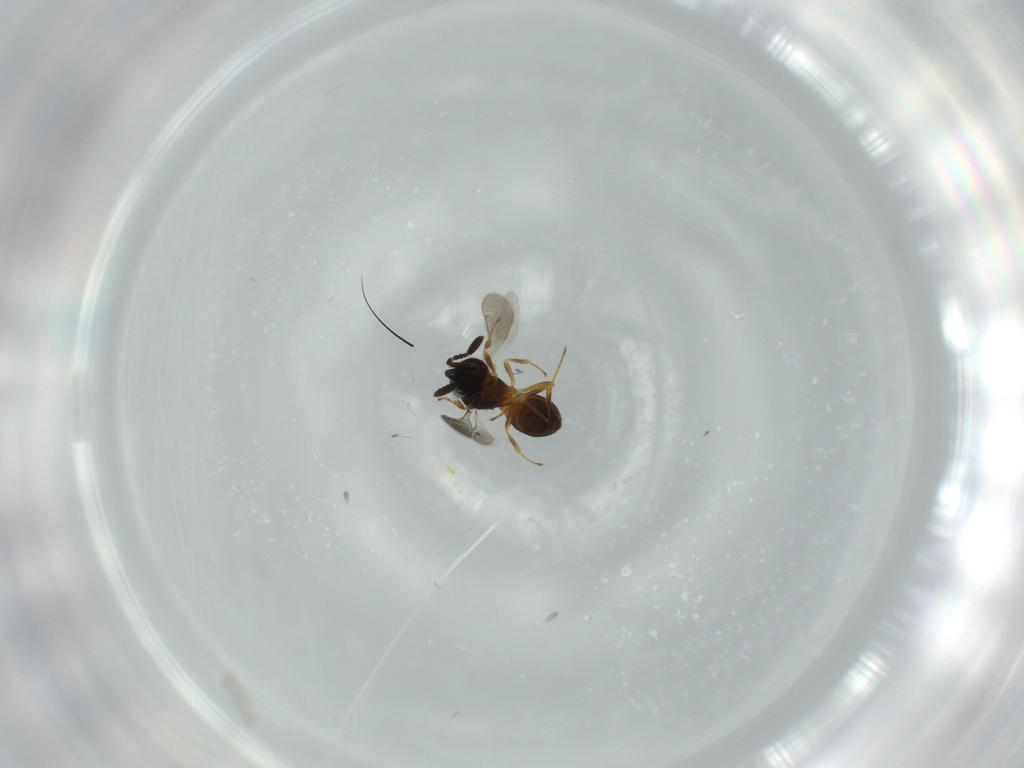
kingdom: Animalia
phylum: Arthropoda
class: Insecta
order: Hymenoptera
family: Scelionidae
